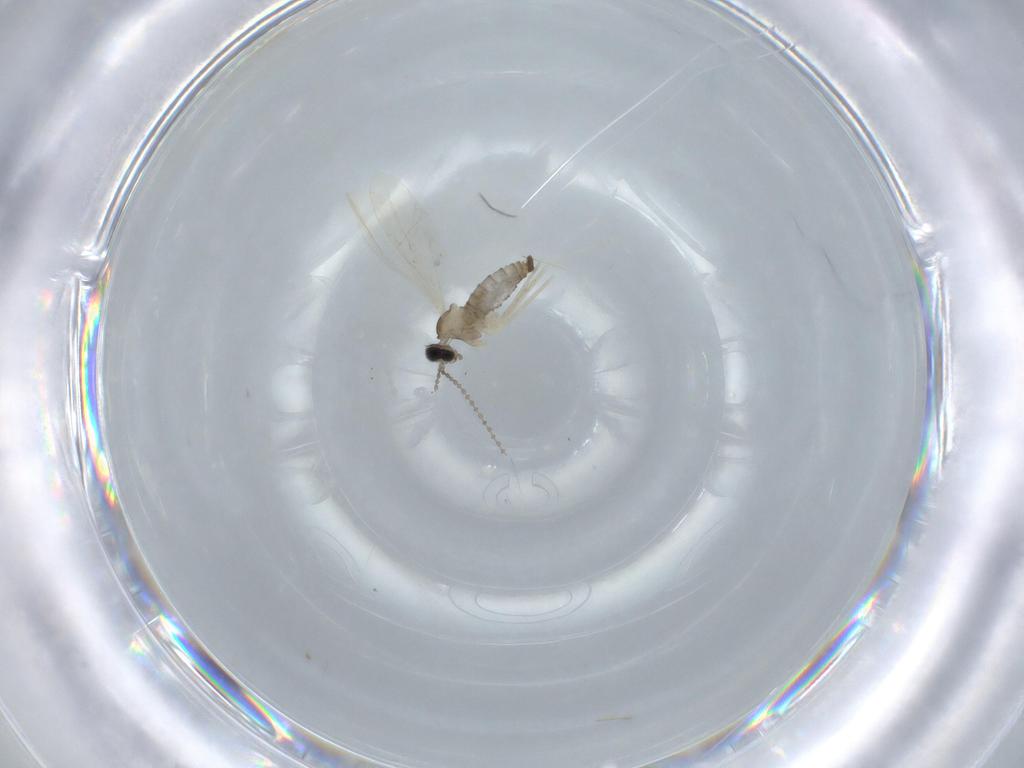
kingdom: Animalia
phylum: Arthropoda
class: Insecta
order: Diptera
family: Cecidomyiidae
